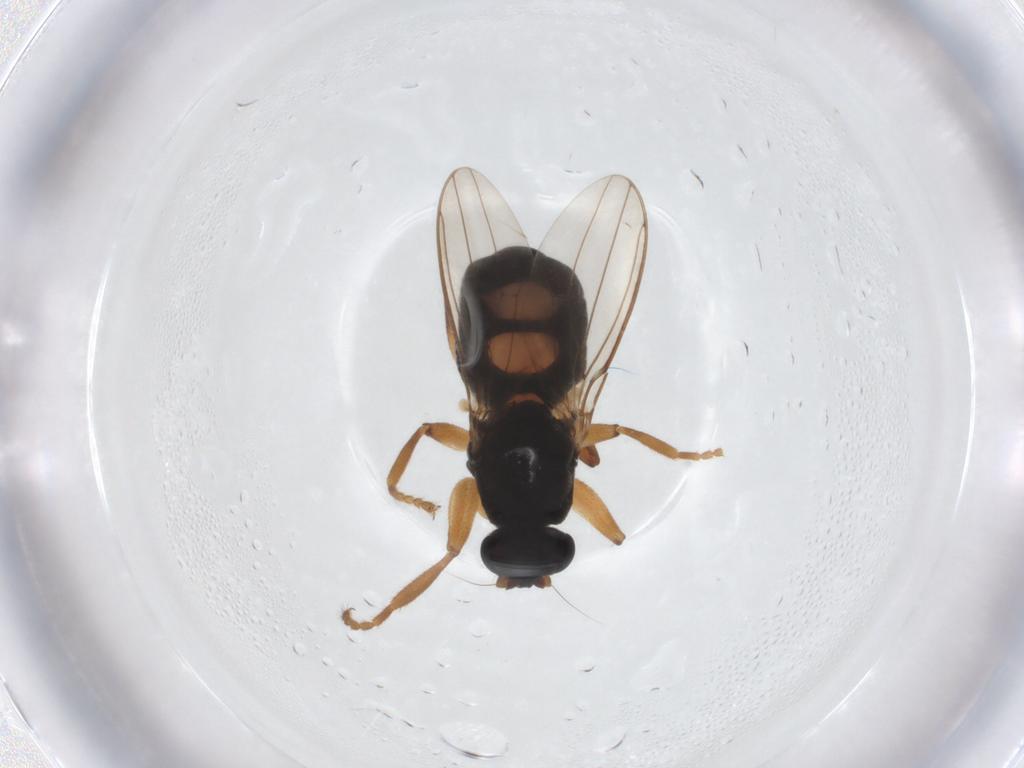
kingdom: Animalia
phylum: Arthropoda
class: Insecta
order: Diptera
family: Sphaeroceridae
